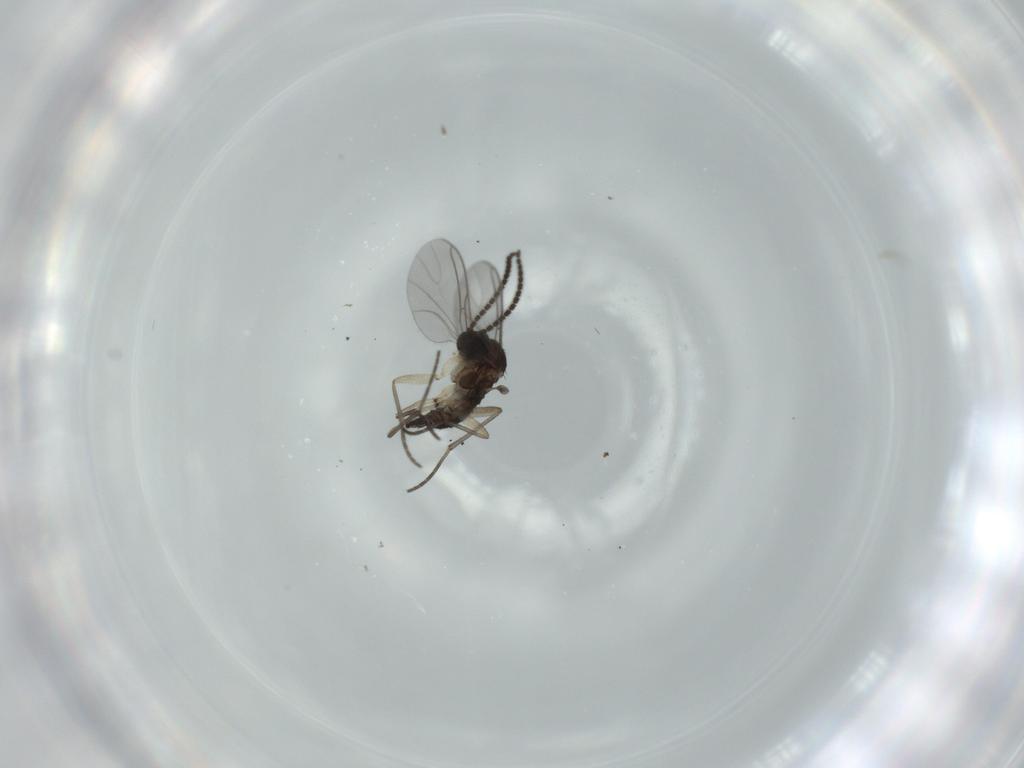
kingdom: Animalia
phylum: Arthropoda
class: Insecta
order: Diptera
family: Sciaridae
